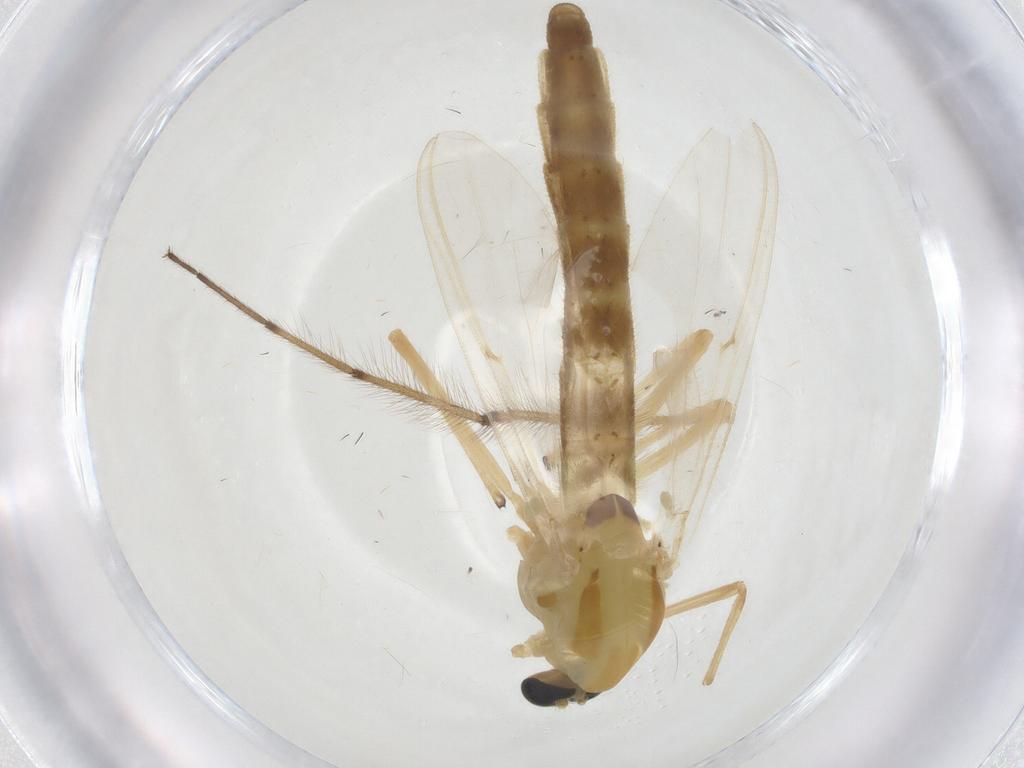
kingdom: Animalia
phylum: Arthropoda
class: Insecta
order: Diptera
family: Chironomidae
